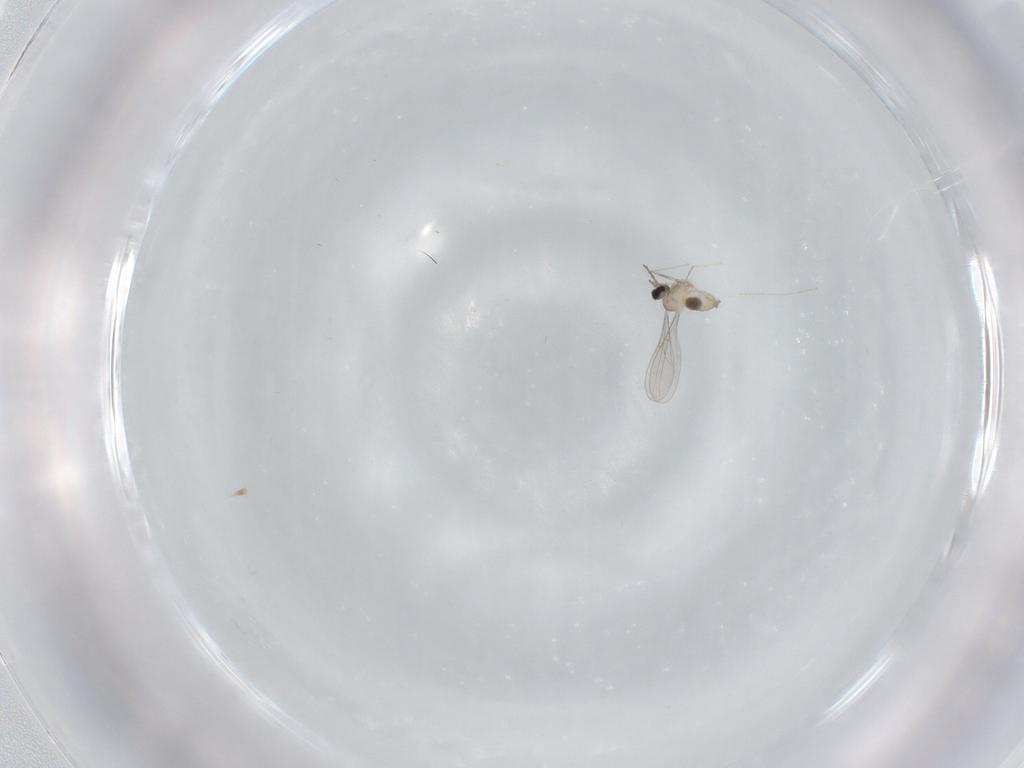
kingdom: Animalia
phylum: Arthropoda
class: Insecta
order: Diptera
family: Cecidomyiidae
